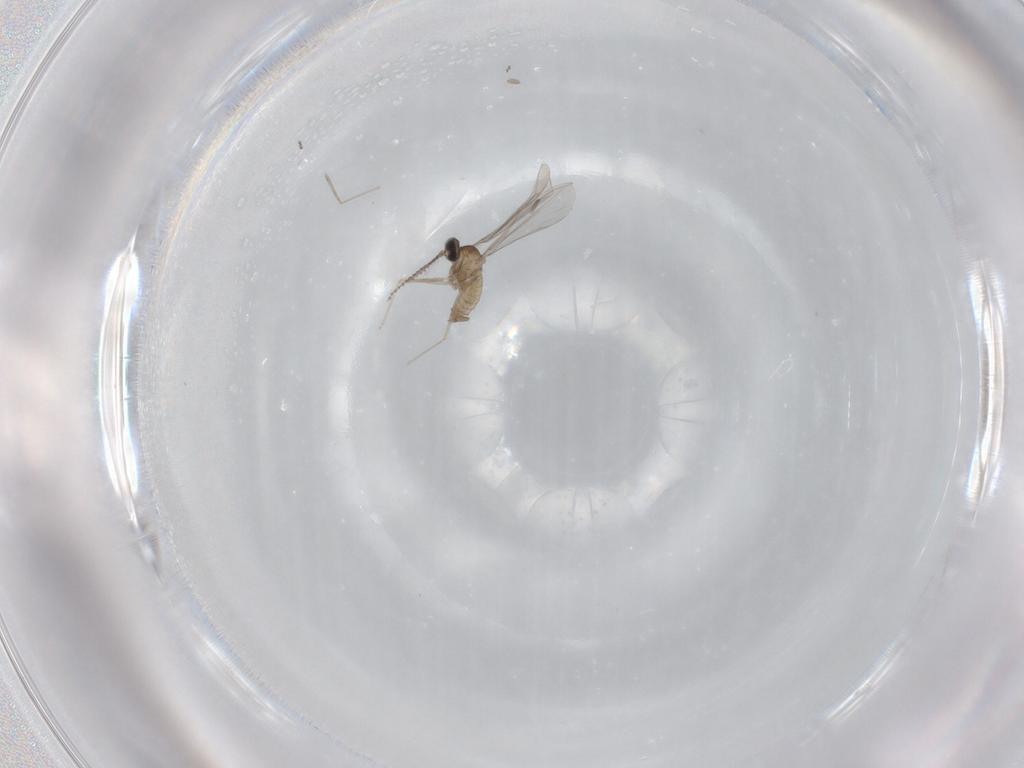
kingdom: Animalia
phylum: Arthropoda
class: Insecta
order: Diptera
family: Cecidomyiidae
